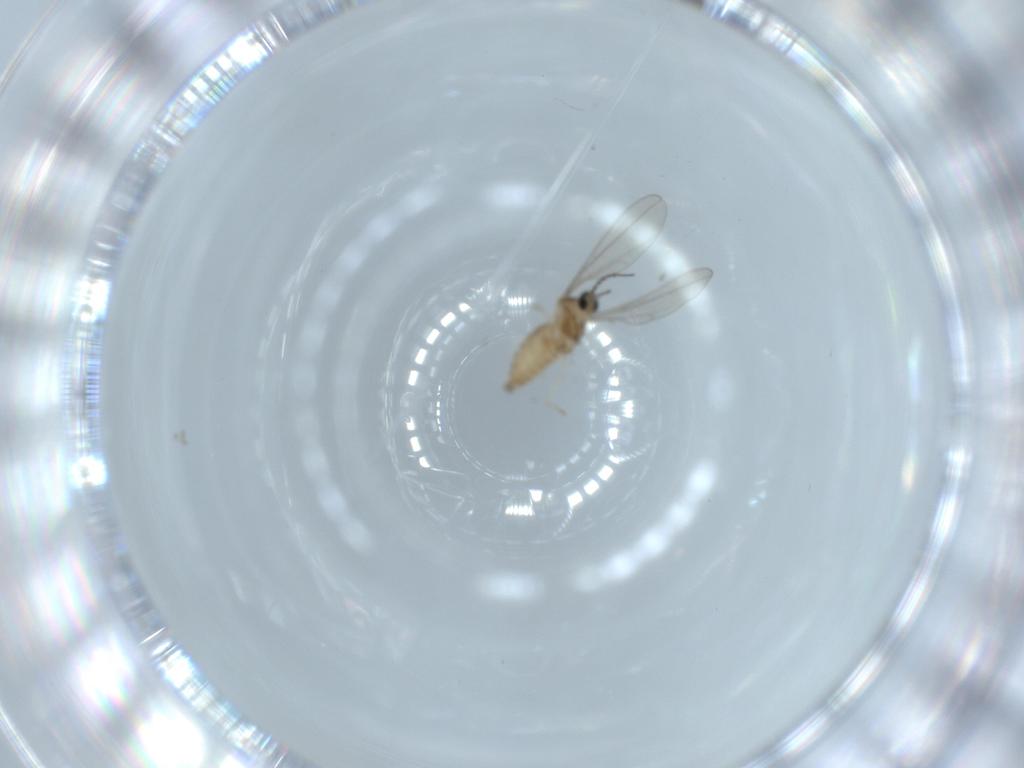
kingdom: Animalia
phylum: Arthropoda
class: Insecta
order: Diptera
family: Cecidomyiidae
